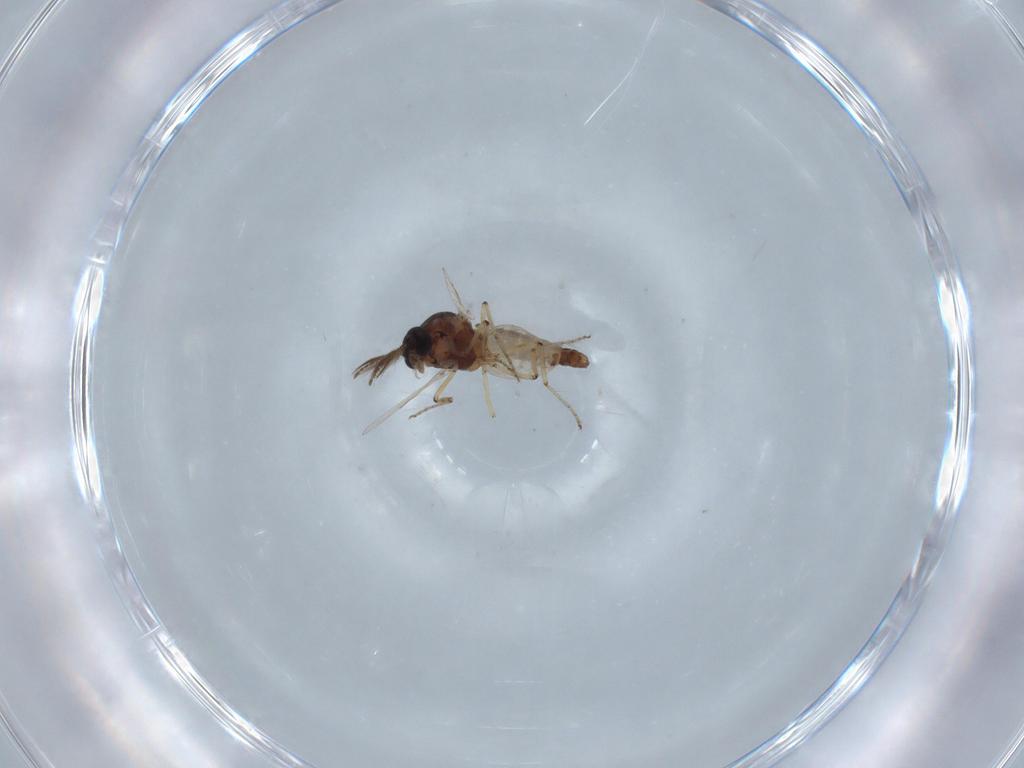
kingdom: Animalia
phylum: Arthropoda
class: Insecta
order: Diptera
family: Ceratopogonidae
